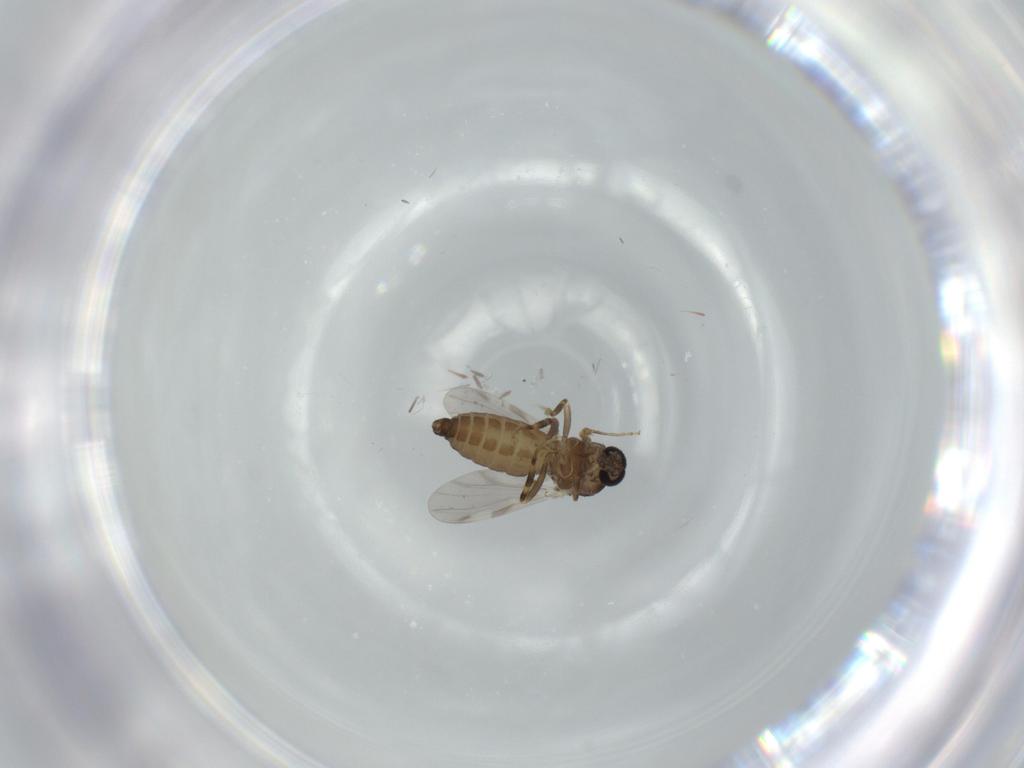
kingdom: Animalia
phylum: Arthropoda
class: Insecta
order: Diptera
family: Ceratopogonidae
